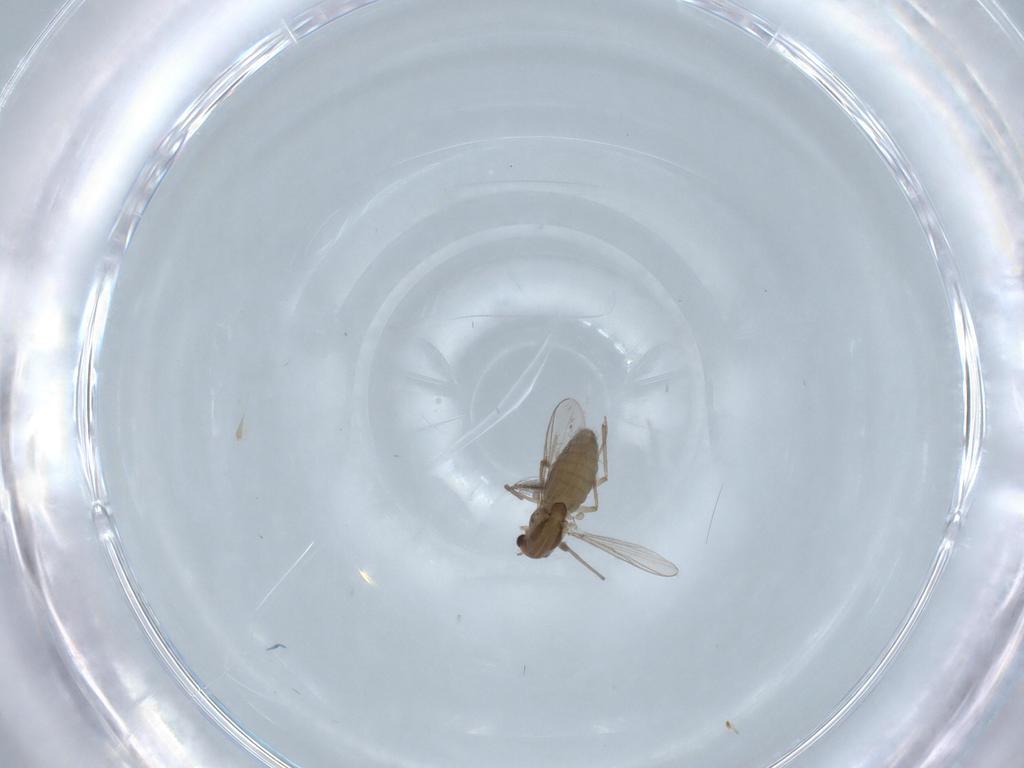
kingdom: Animalia
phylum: Arthropoda
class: Insecta
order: Diptera
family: Chironomidae
